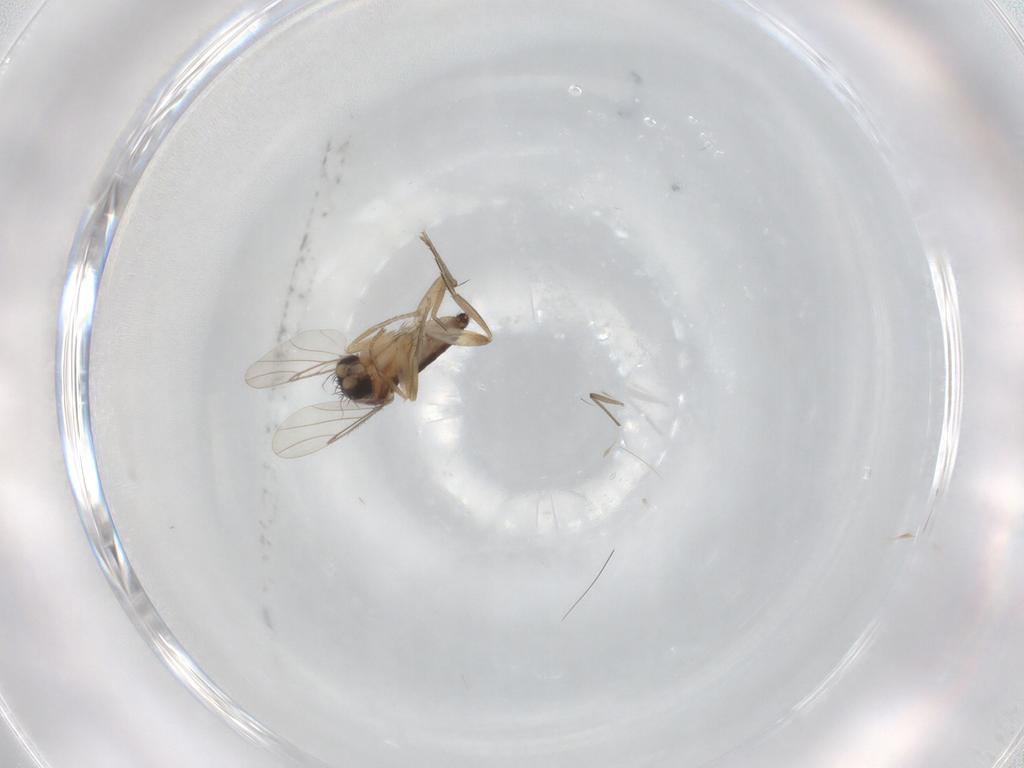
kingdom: Animalia
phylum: Arthropoda
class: Insecta
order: Diptera
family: Phoridae
